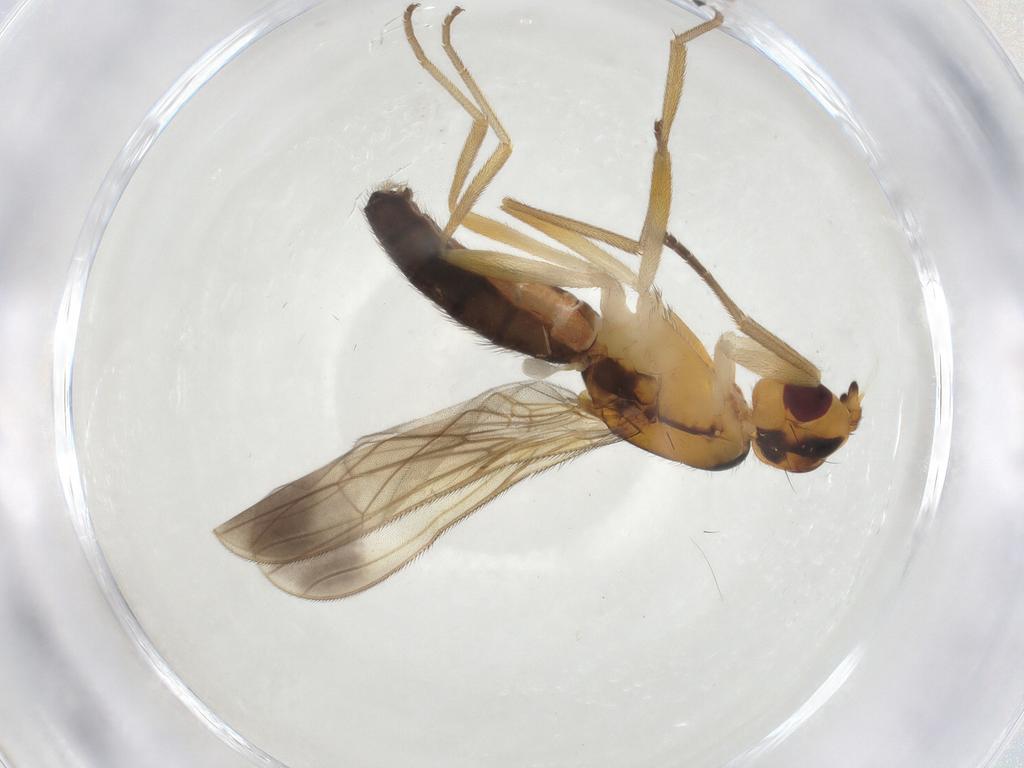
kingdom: Animalia
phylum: Arthropoda
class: Insecta
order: Diptera
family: Psilidae
